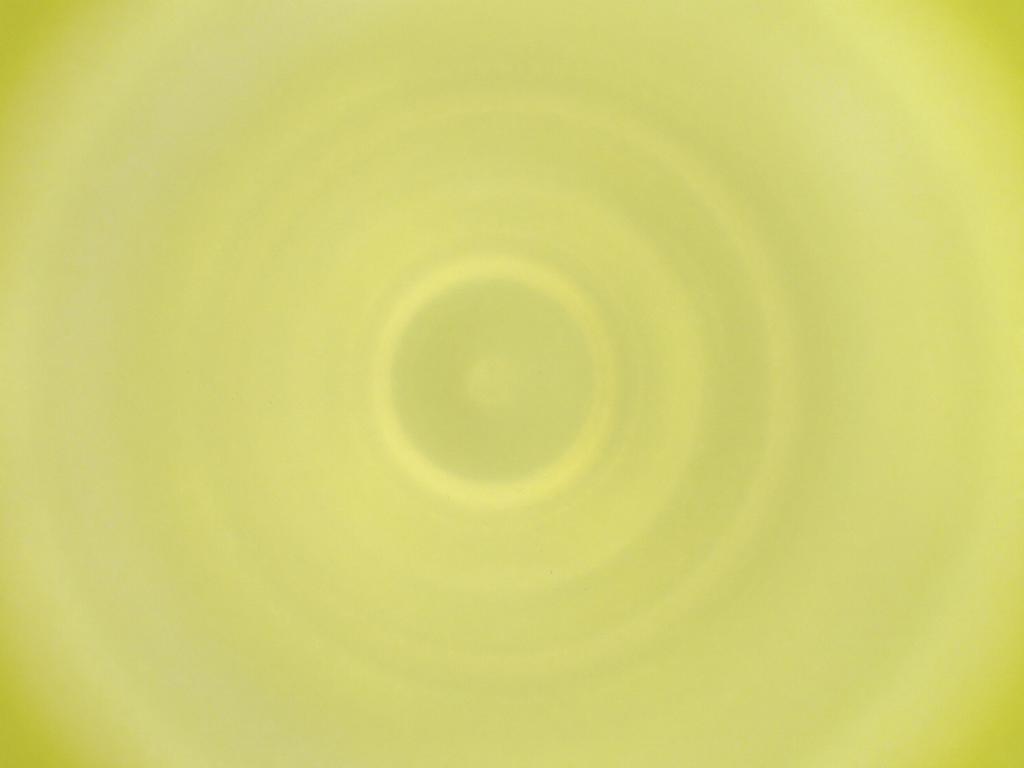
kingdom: Animalia
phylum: Arthropoda
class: Insecta
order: Diptera
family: Cecidomyiidae
